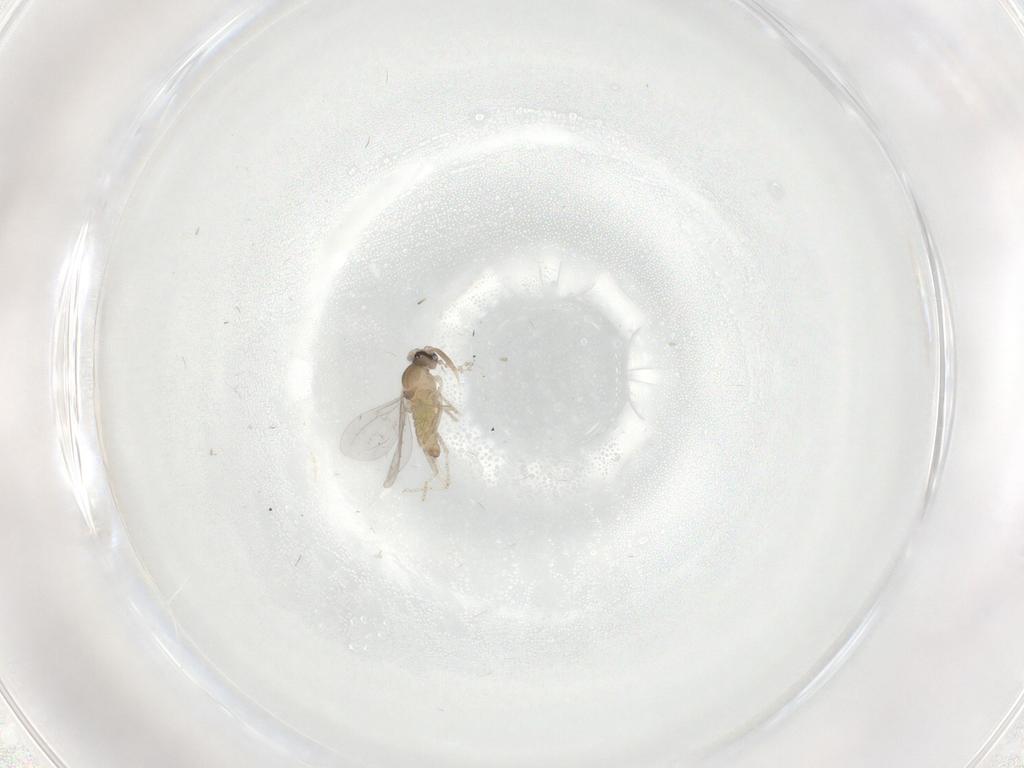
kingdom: Animalia
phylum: Arthropoda
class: Insecta
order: Diptera
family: Cecidomyiidae
